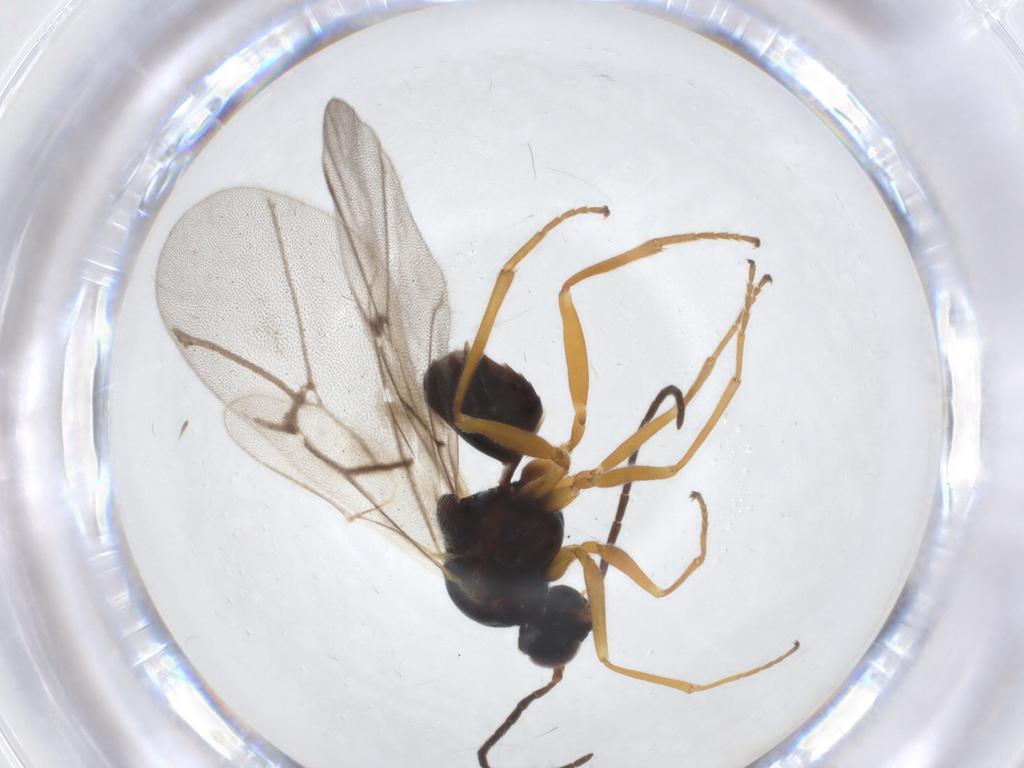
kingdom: Animalia
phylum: Arthropoda
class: Insecta
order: Hymenoptera
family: Cynipidae
